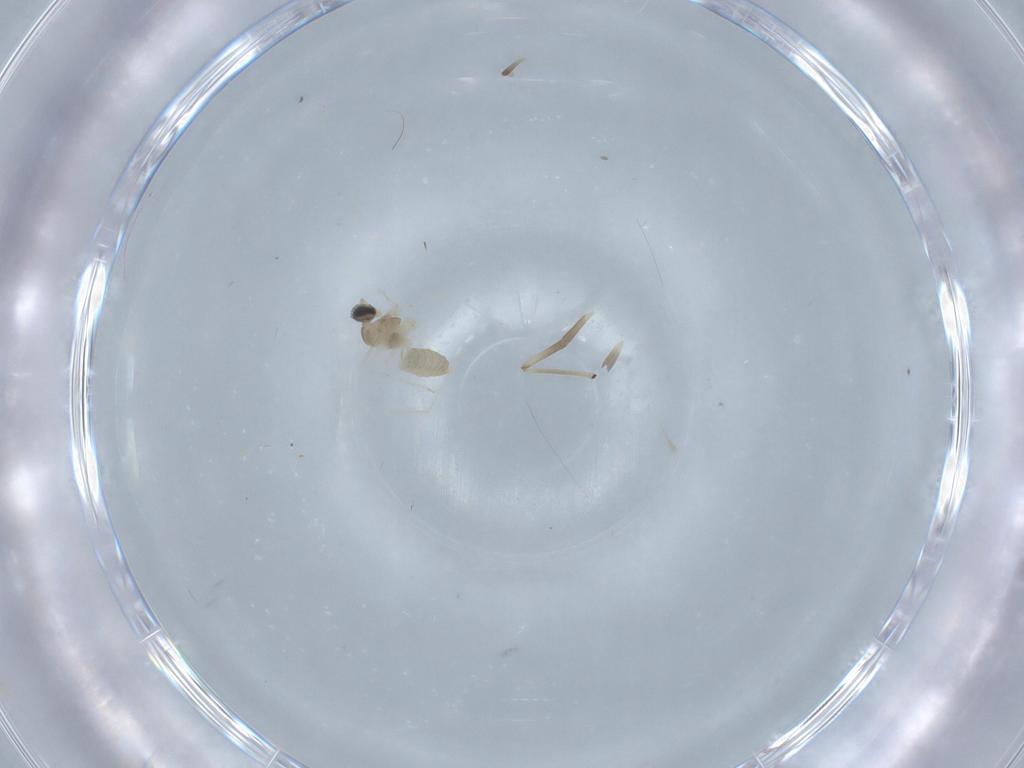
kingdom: Animalia
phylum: Arthropoda
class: Insecta
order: Diptera
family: Cecidomyiidae
